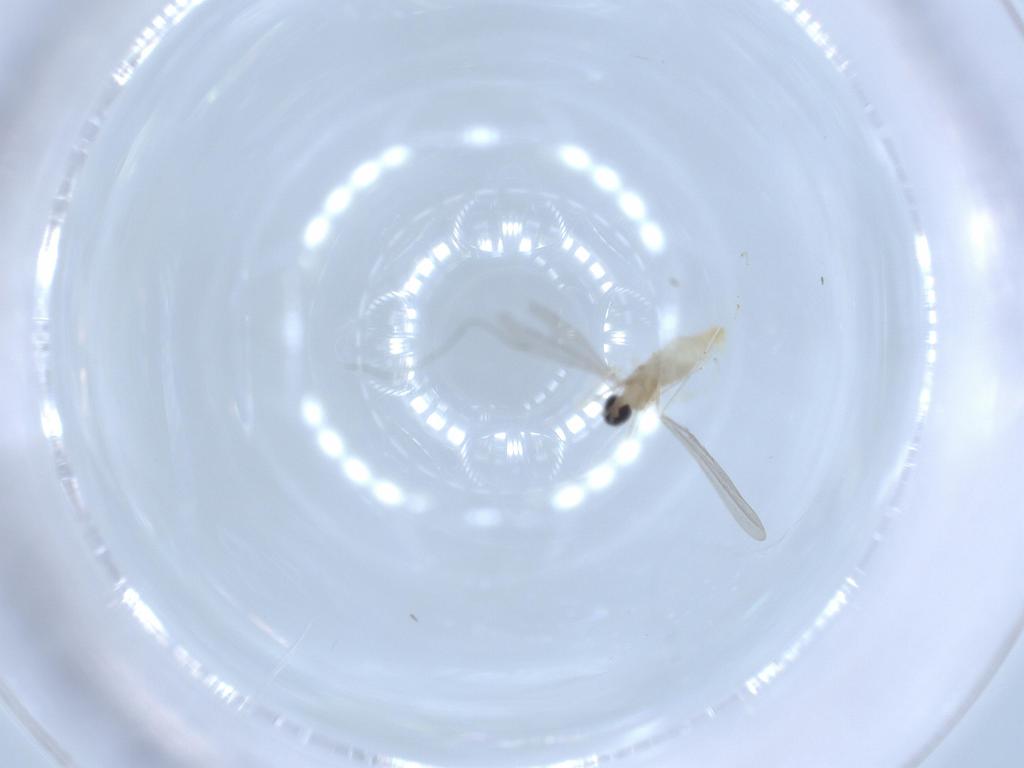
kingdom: Animalia
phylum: Arthropoda
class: Insecta
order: Diptera
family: Cecidomyiidae
